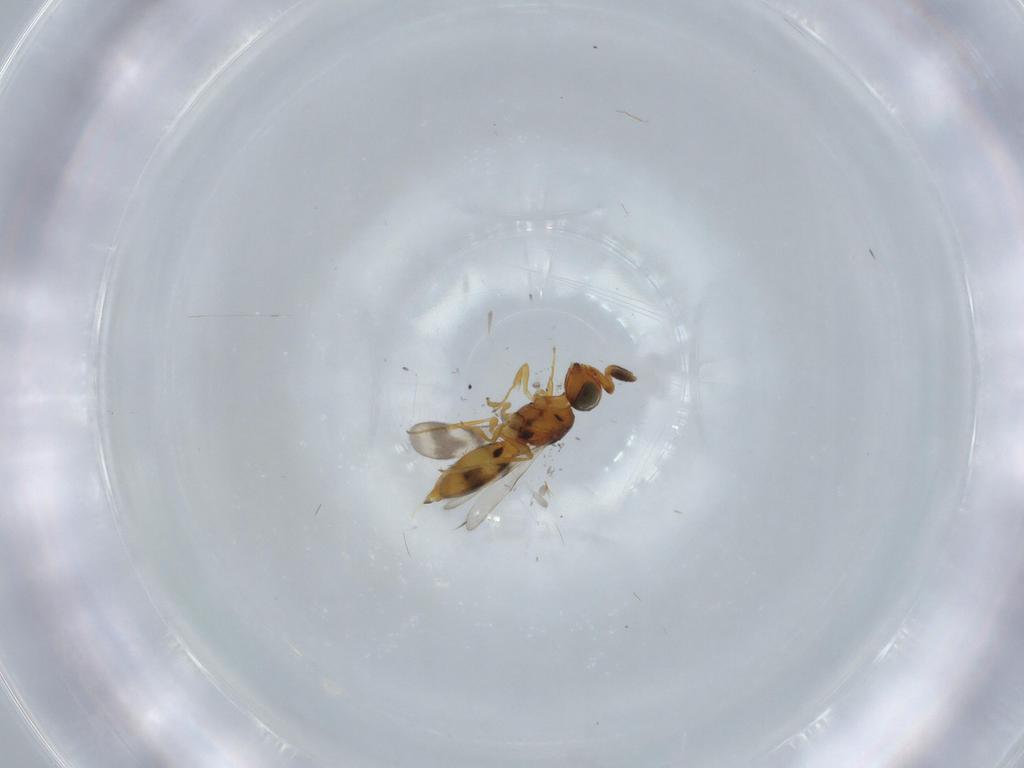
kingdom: Animalia
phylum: Arthropoda
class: Insecta
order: Hymenoptera
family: Scelionidae
